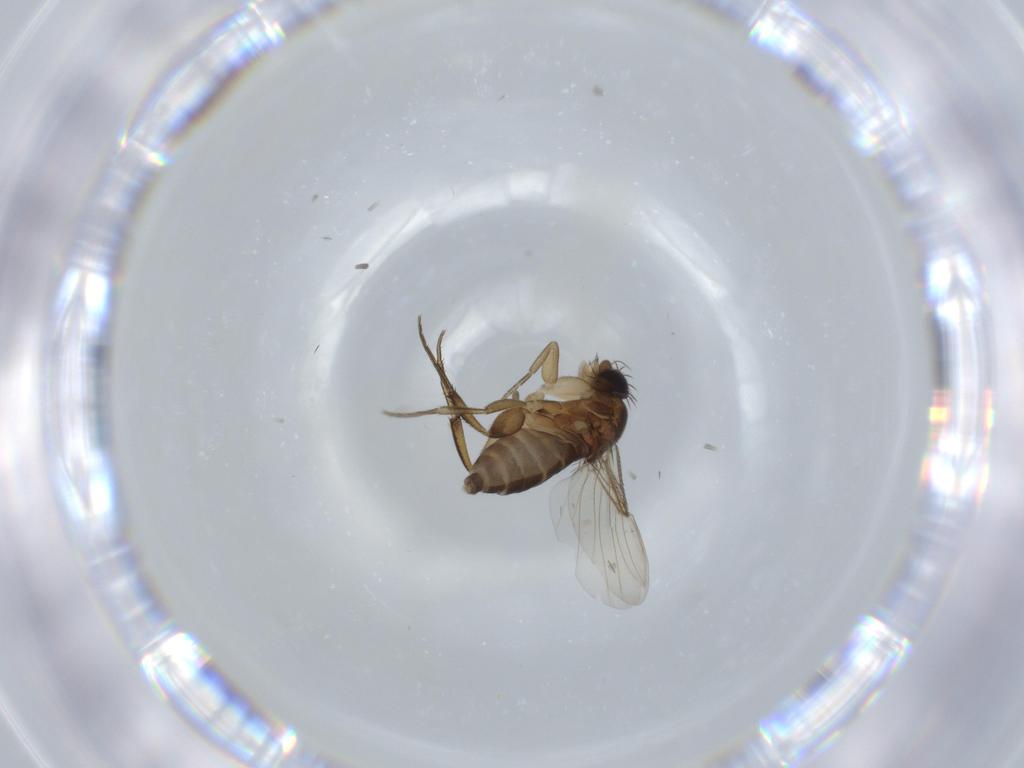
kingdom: Animalia
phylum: Arthropoda
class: Insecta
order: Diptera
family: Phoridae
